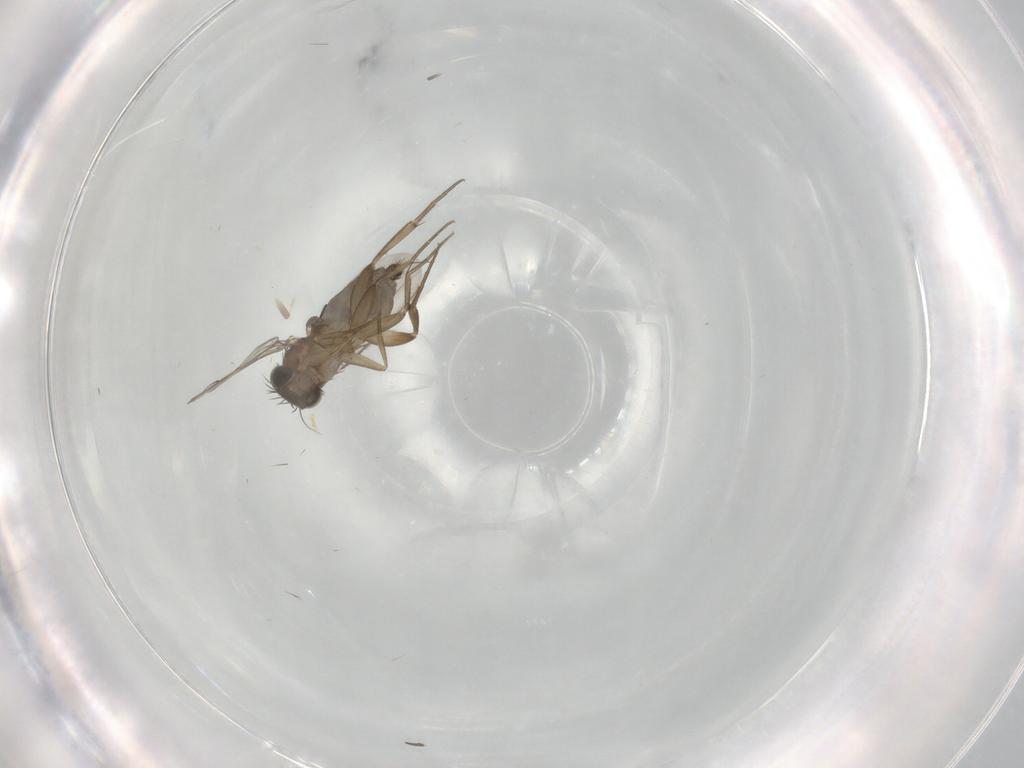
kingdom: Animalia
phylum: Arthropoda
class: Insecta
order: Diptera
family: Phoridae
